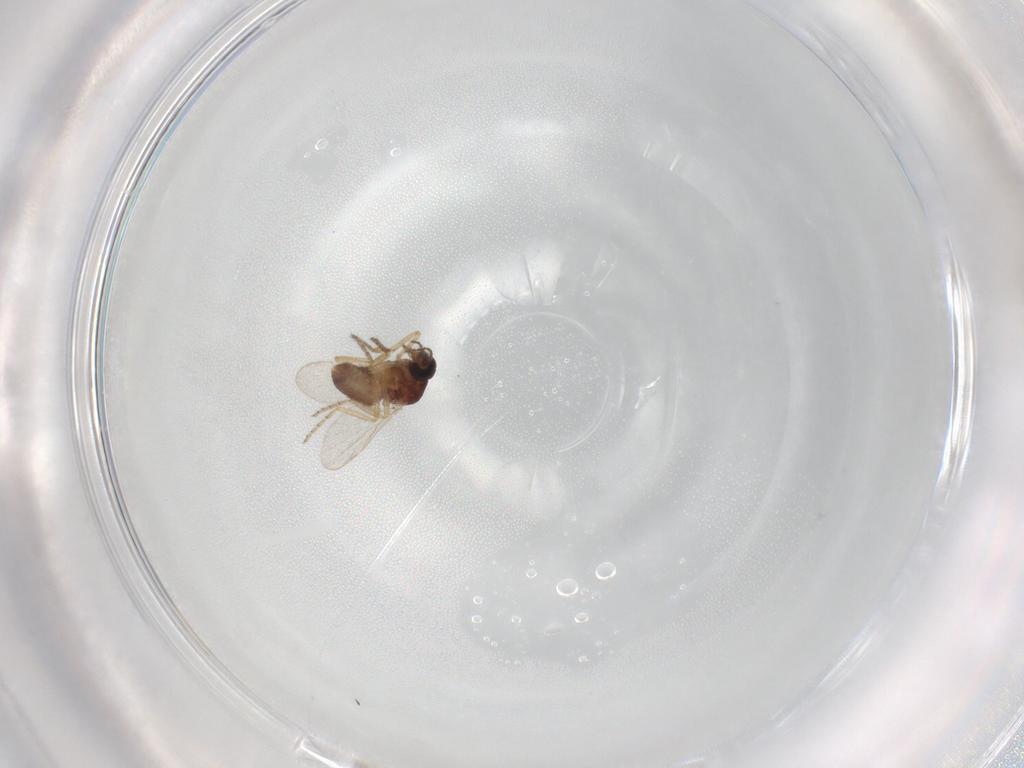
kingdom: Animalia
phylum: Arthropoda
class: Insecta
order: Diptera
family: Ceratopogonidae
